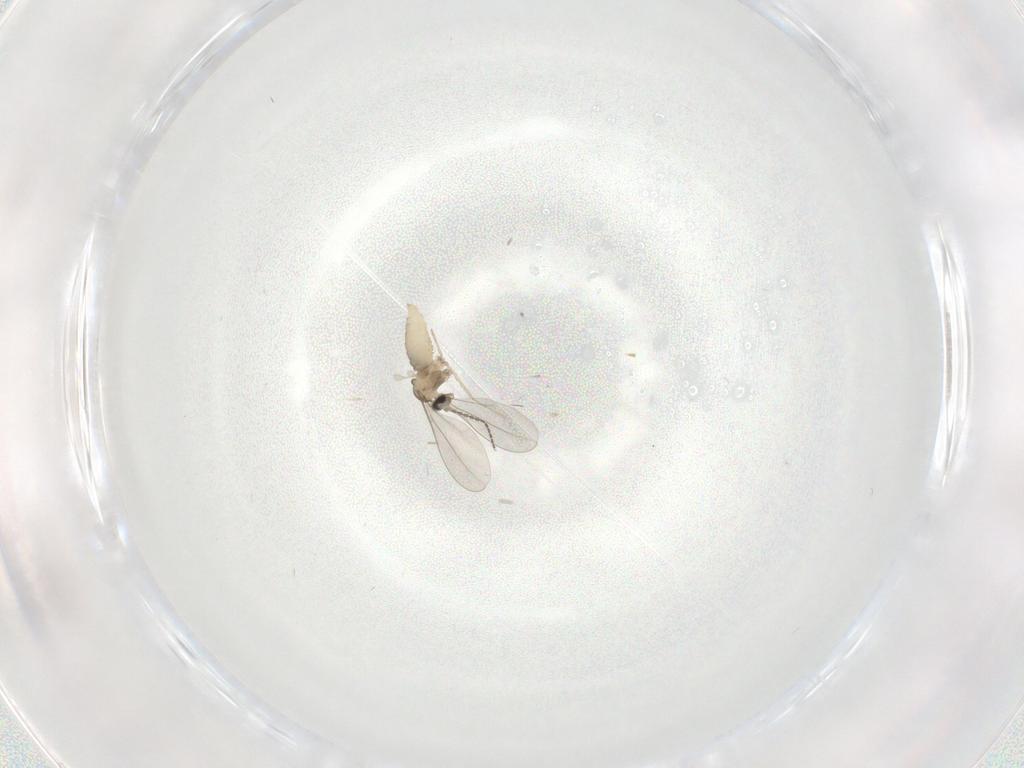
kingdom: Animalia
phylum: Arthropoda
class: Insecta
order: Diptera
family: Cecidomyiidae
